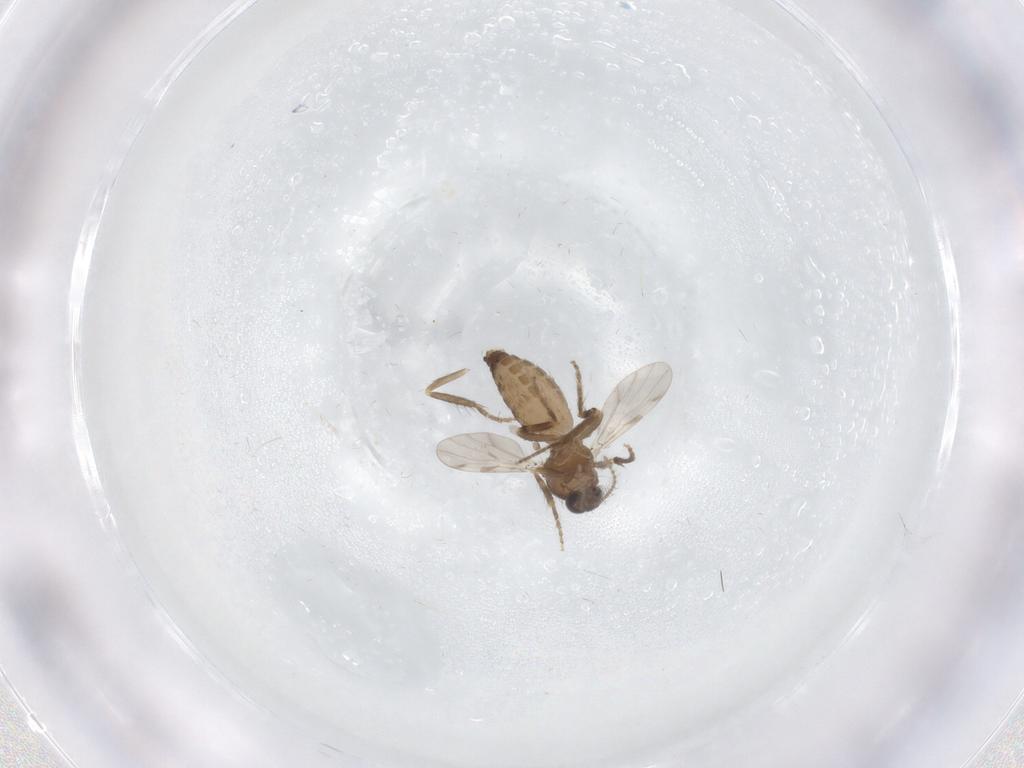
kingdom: Animalia
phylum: Arthropoda
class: Insecta
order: Diptera
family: Ceratopogonidae
